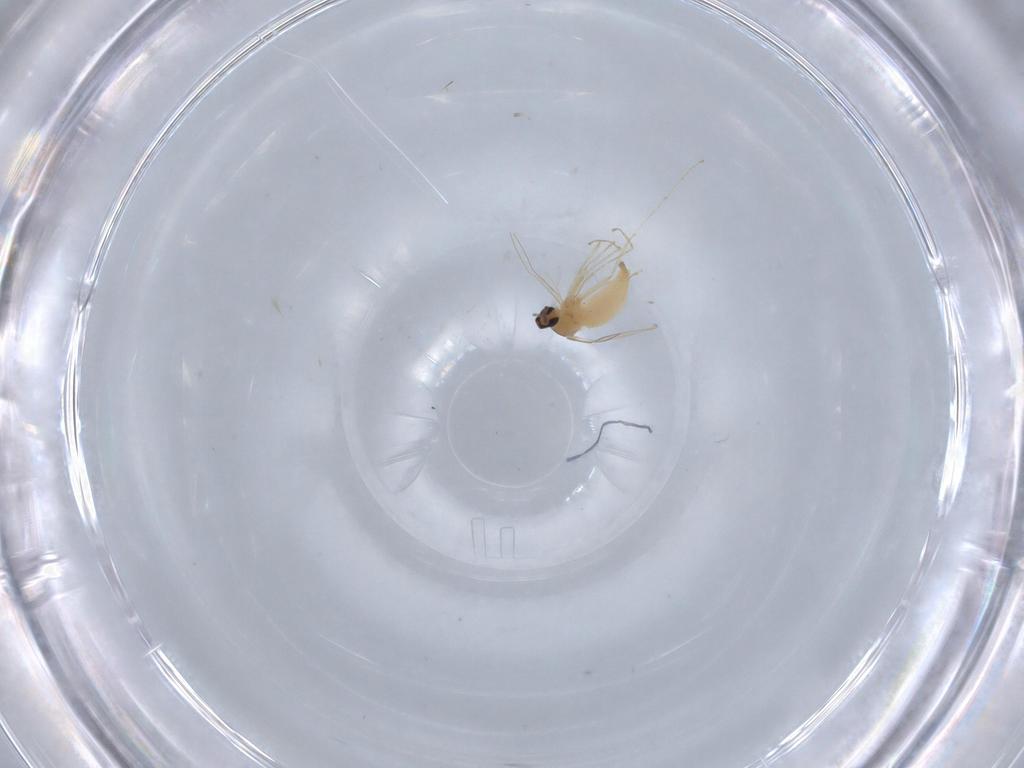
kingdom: Animalia
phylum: Arthropoda
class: Insecta
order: Diptera
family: Cecidomyiidae
